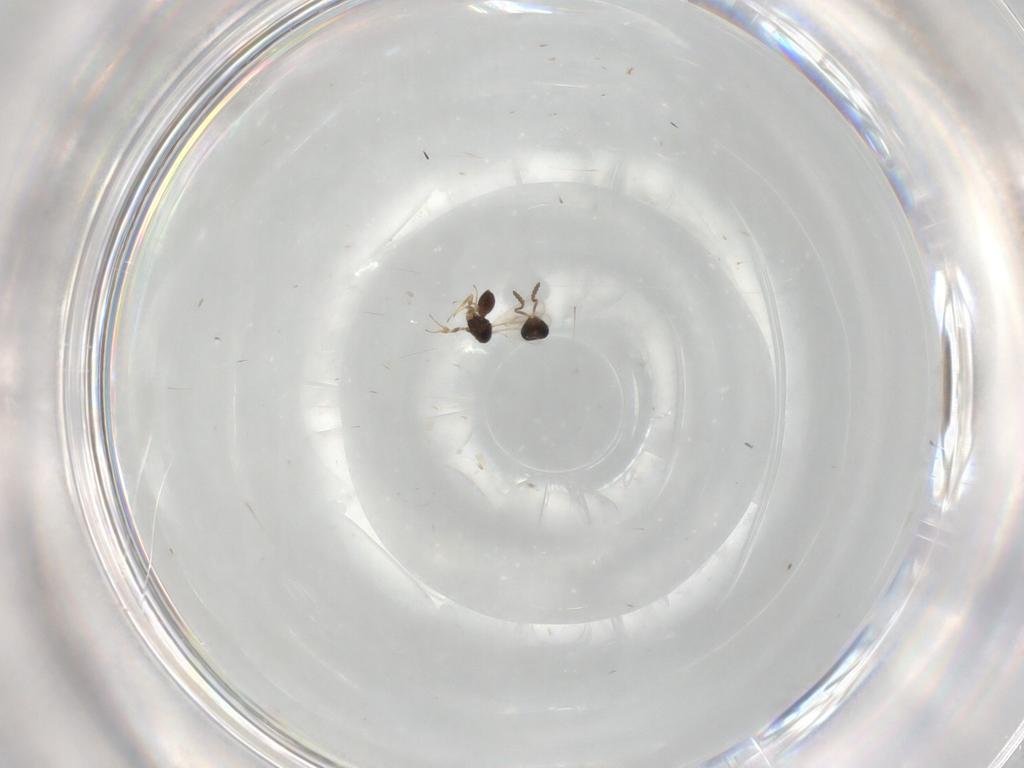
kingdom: Animalia
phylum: Arthropoda
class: Insecta
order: Hymenoptera
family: Scelionidae
